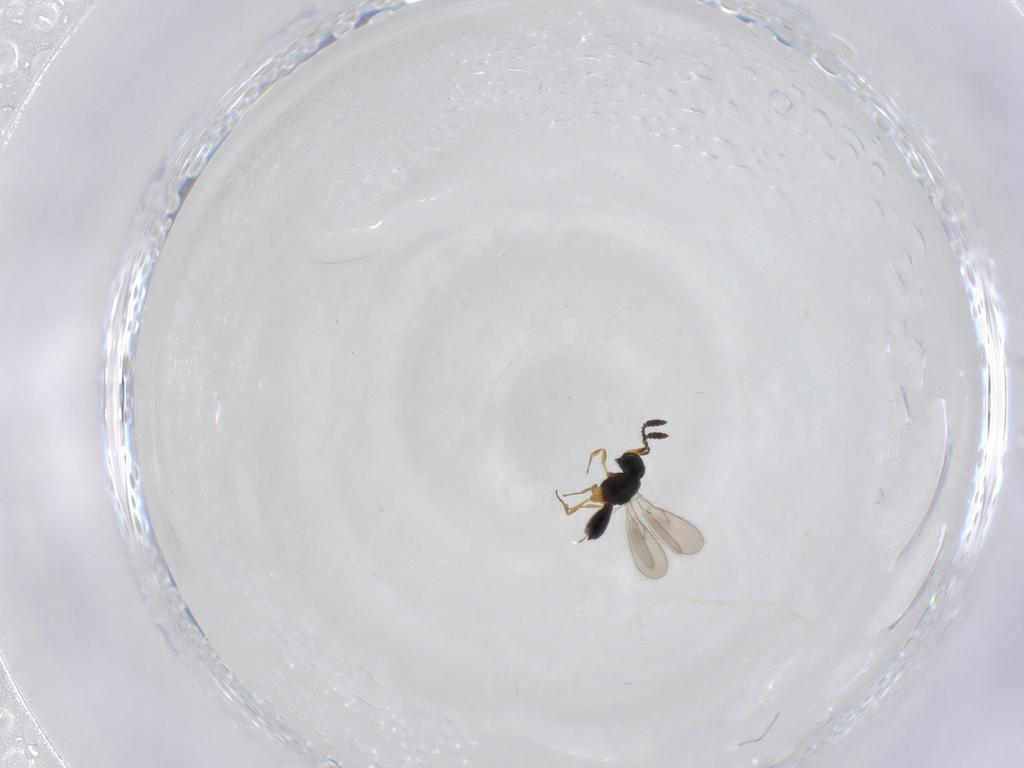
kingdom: Animalia
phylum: Arthropoda
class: Insecta
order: Hymenoptera
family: Scelionidae
